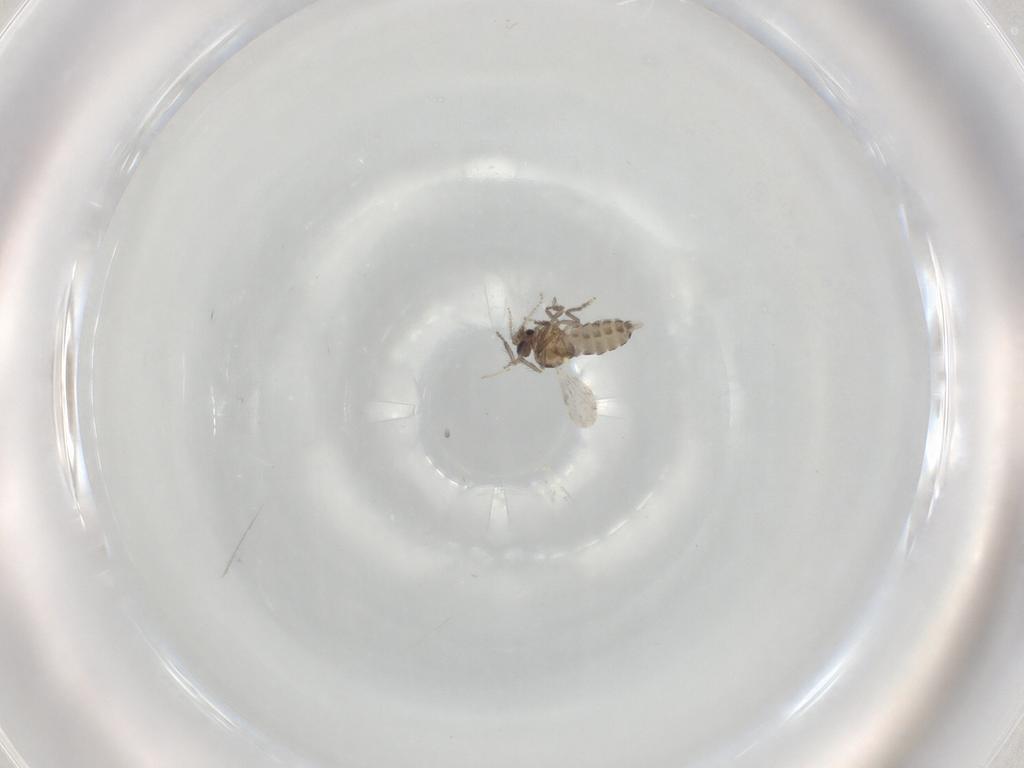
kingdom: Animalia
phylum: Arthropoda
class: Insecta
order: Diptera
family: Ceratopogonidae
